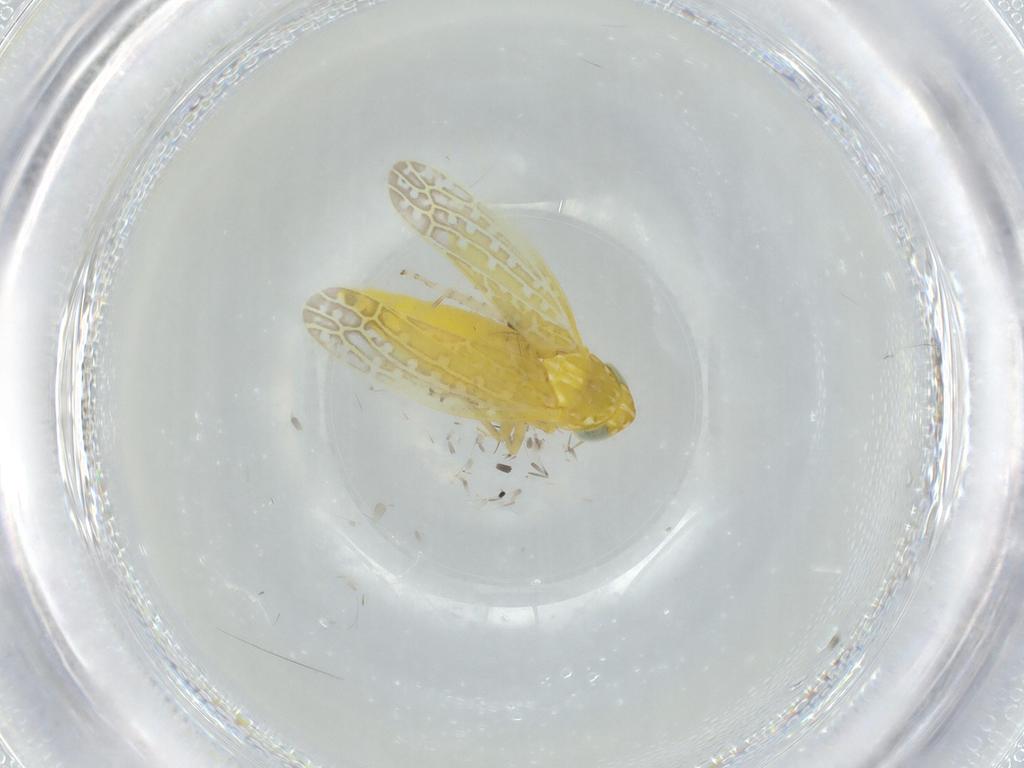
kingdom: Animalia
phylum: Arthropoda
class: Insecta
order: Hemiptera
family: Cicadellidae
